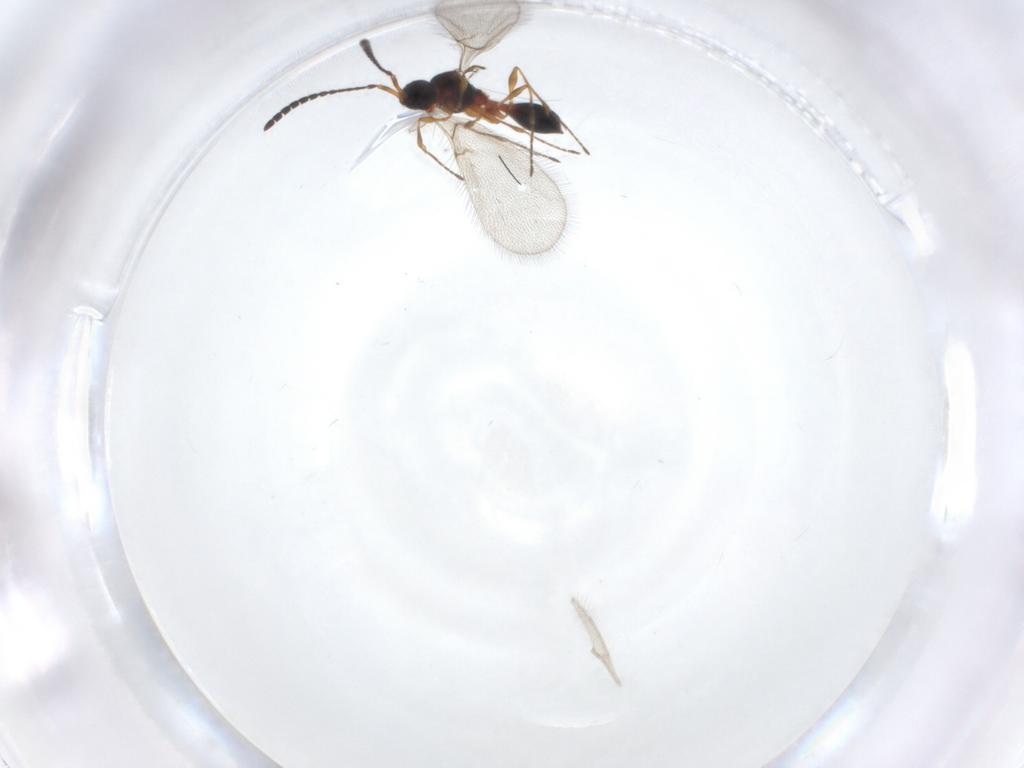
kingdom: Animalia
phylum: Arthropoda
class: Insecta
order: Hymenoptera
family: Diapriidae
